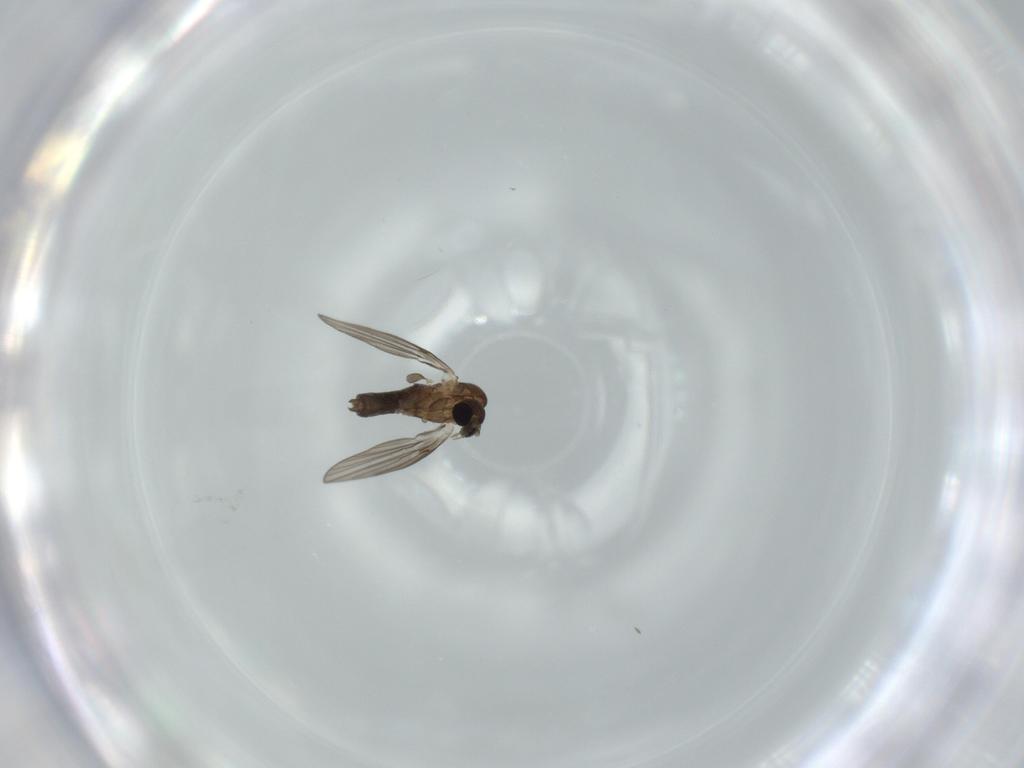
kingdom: Animalia
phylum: Arthropoda
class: Insecta
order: Diptera
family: Psychodidae
